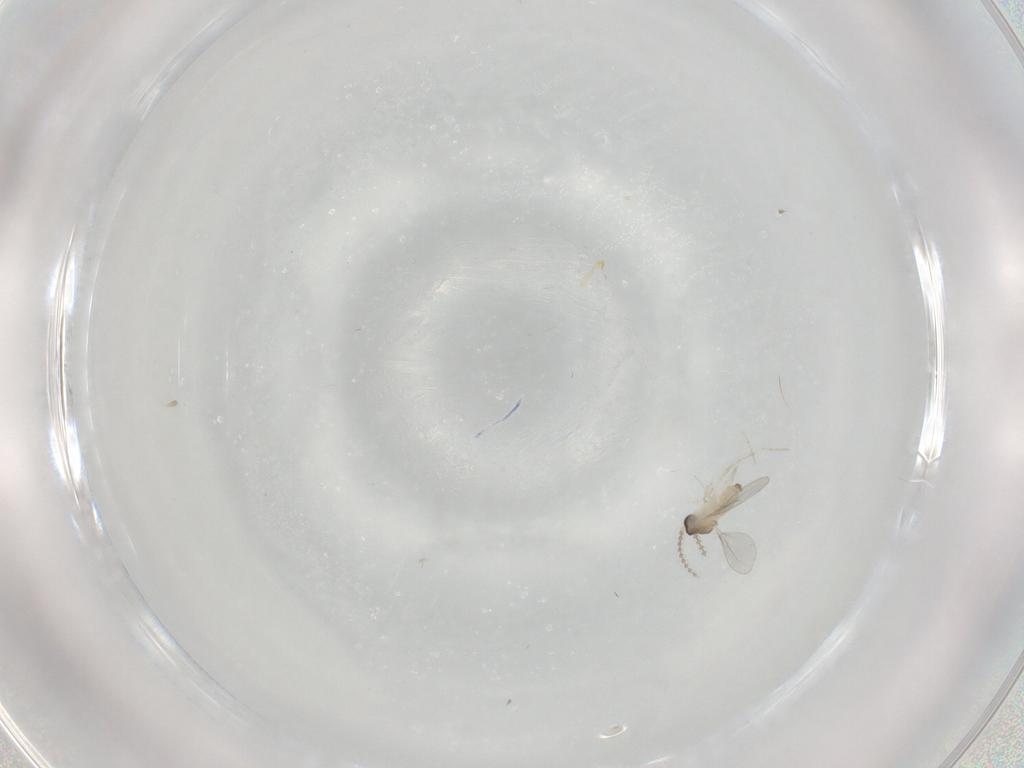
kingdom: Animalia
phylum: Arthropoda
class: Insecta
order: Diptera
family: Cecidomyiidae
